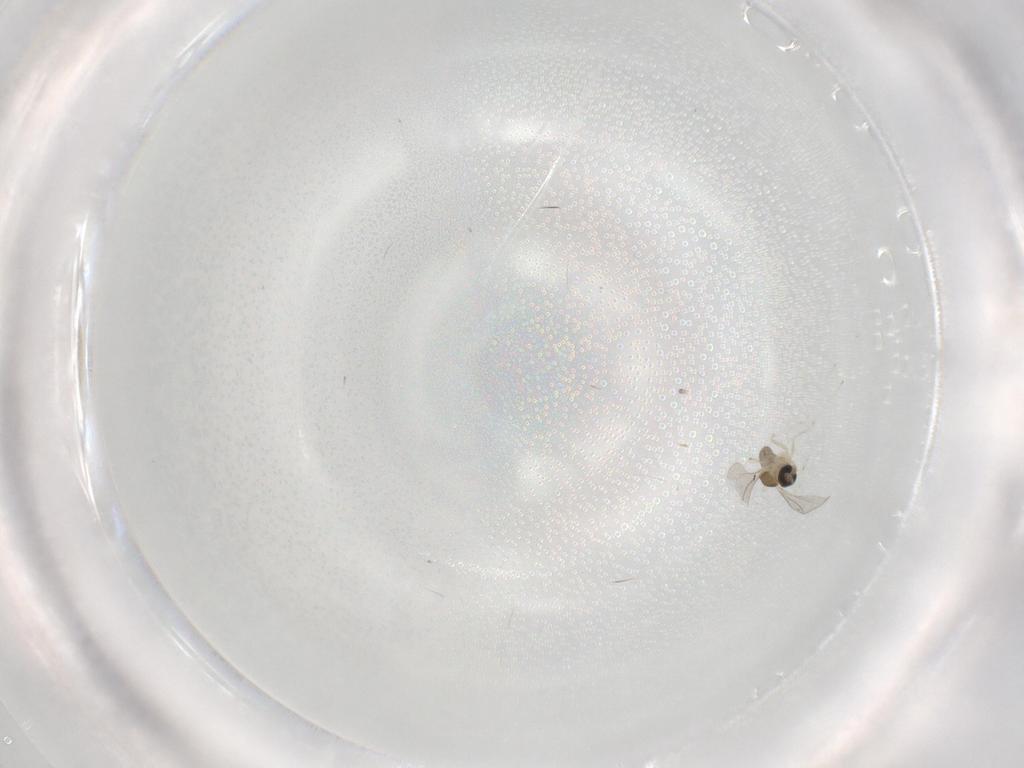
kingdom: Animalia
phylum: Arthropoda
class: Insecta
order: Diptera
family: Cecidomyiidae
